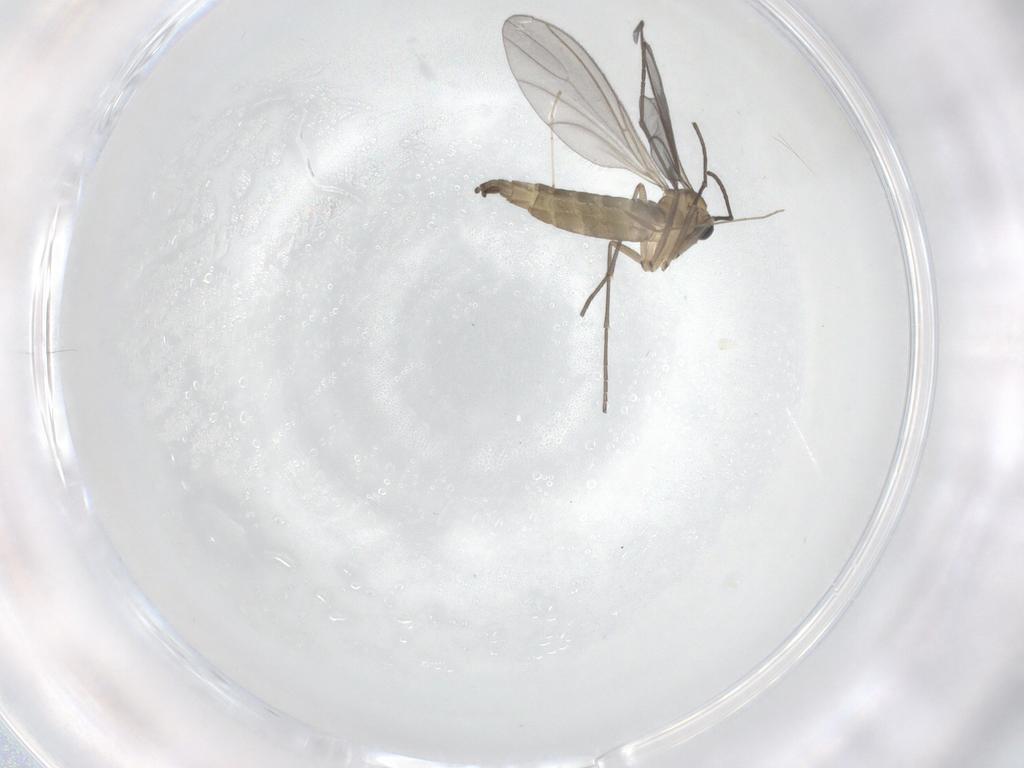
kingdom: Animalia
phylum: Arthropoda
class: Insecta
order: Diptera
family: Sciaridae
